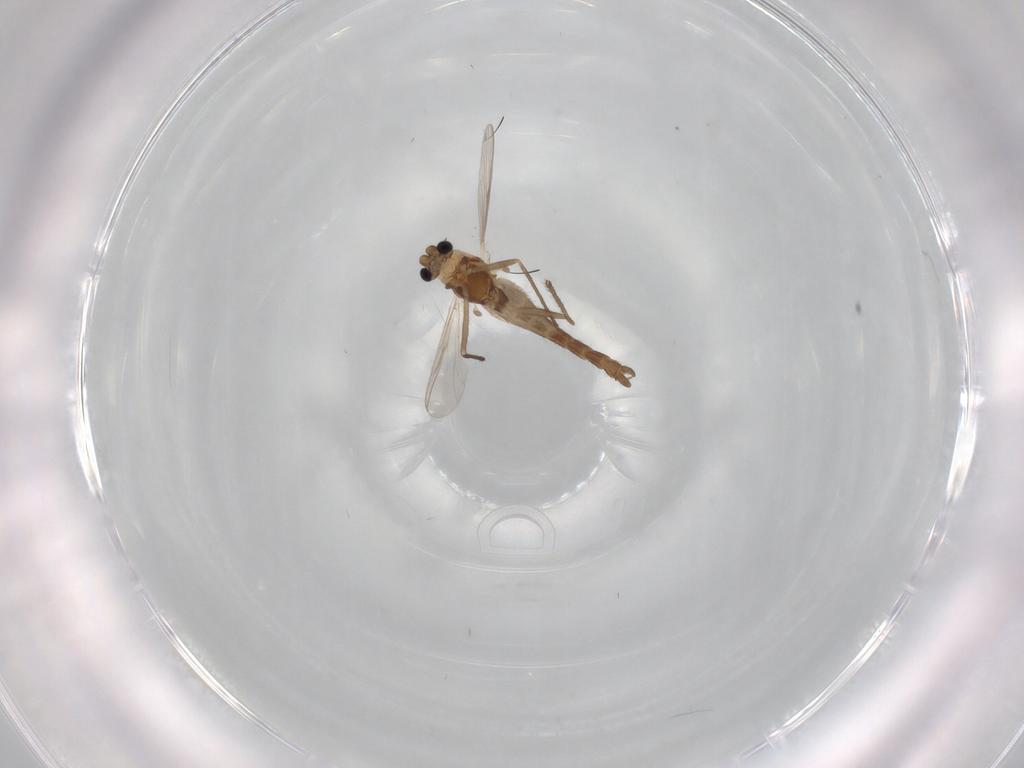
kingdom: Animalia
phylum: Arthropoda
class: Insecta
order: Diptera
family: Chironomidae
